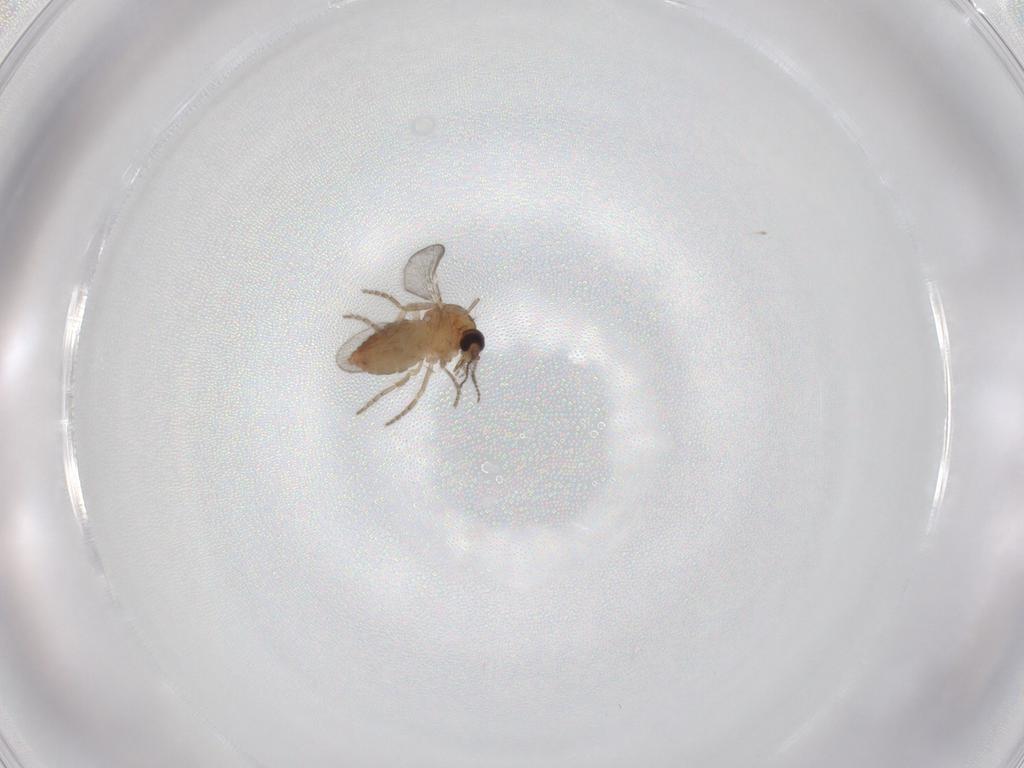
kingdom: Animalia
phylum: Arthropoda
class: Insecta
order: Diptera
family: Ceratopogonidae
